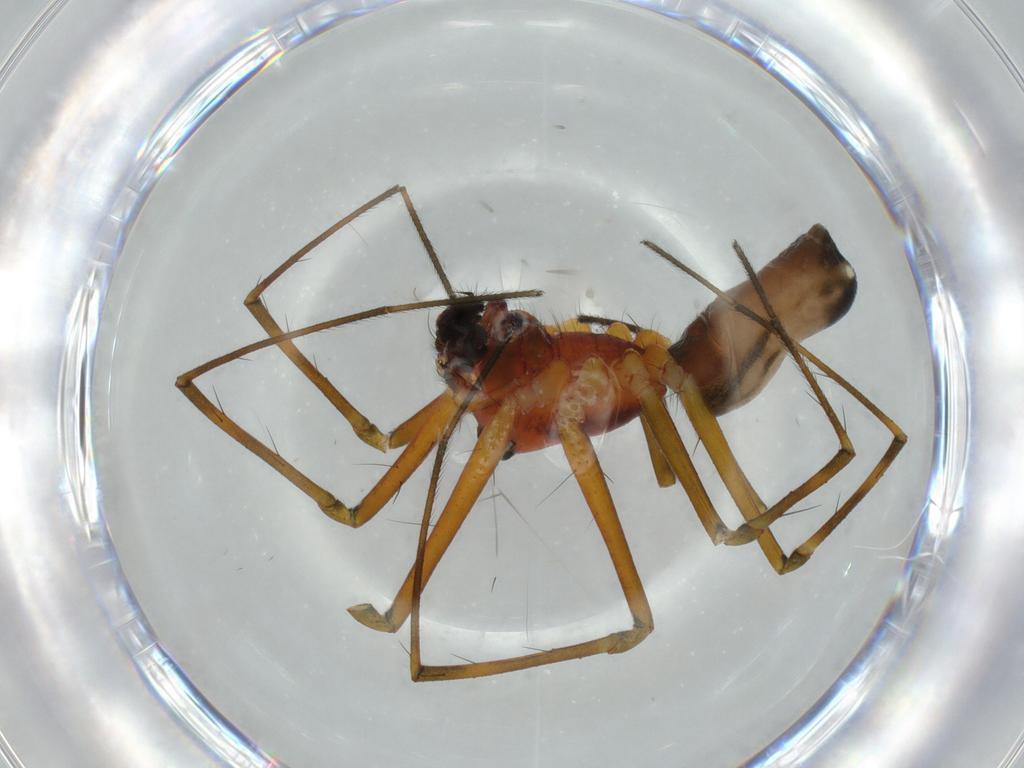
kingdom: Animalia
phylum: Arthropoda
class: Arachnida
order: Araneae
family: Linyphiidae
